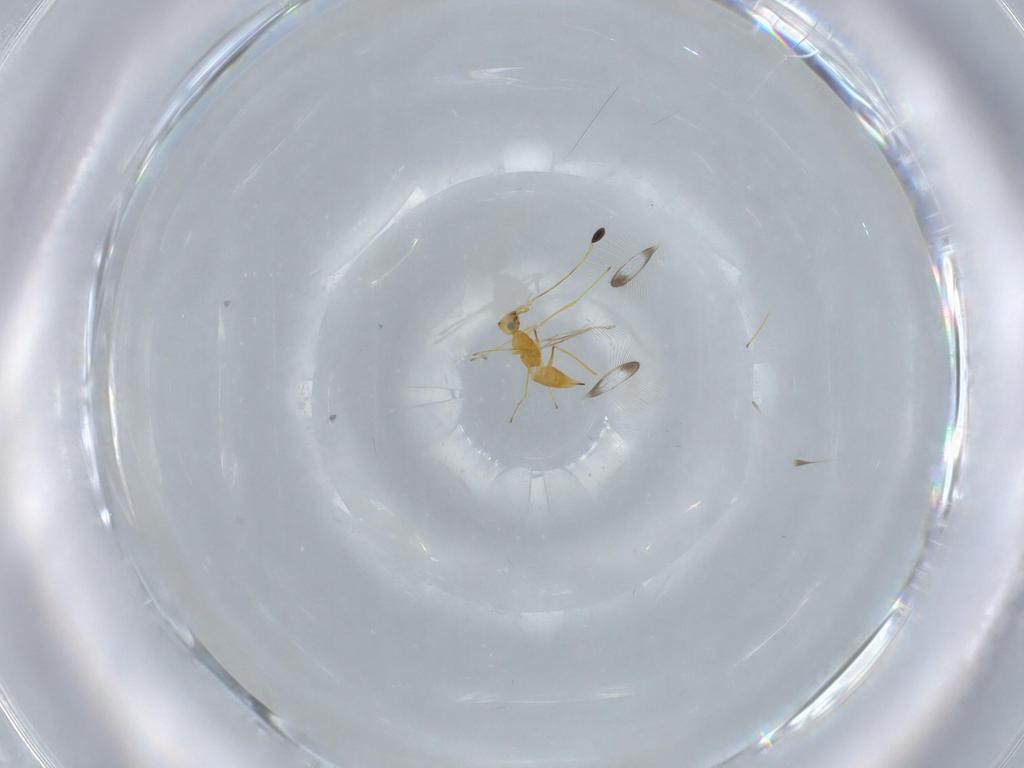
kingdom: Animalia
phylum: Arthropoda
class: Insecta
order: Hymenoptera
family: Mymaridae
